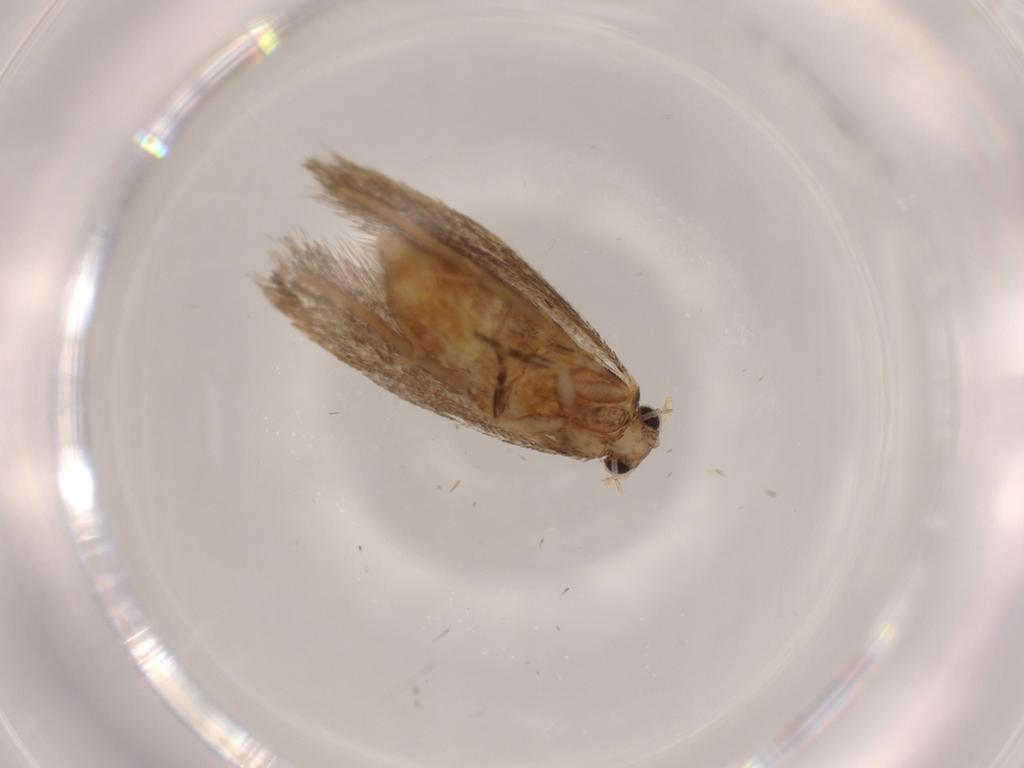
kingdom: Animalia
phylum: Arthropoda
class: Insecta
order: Lepidoptera
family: Tineidae
